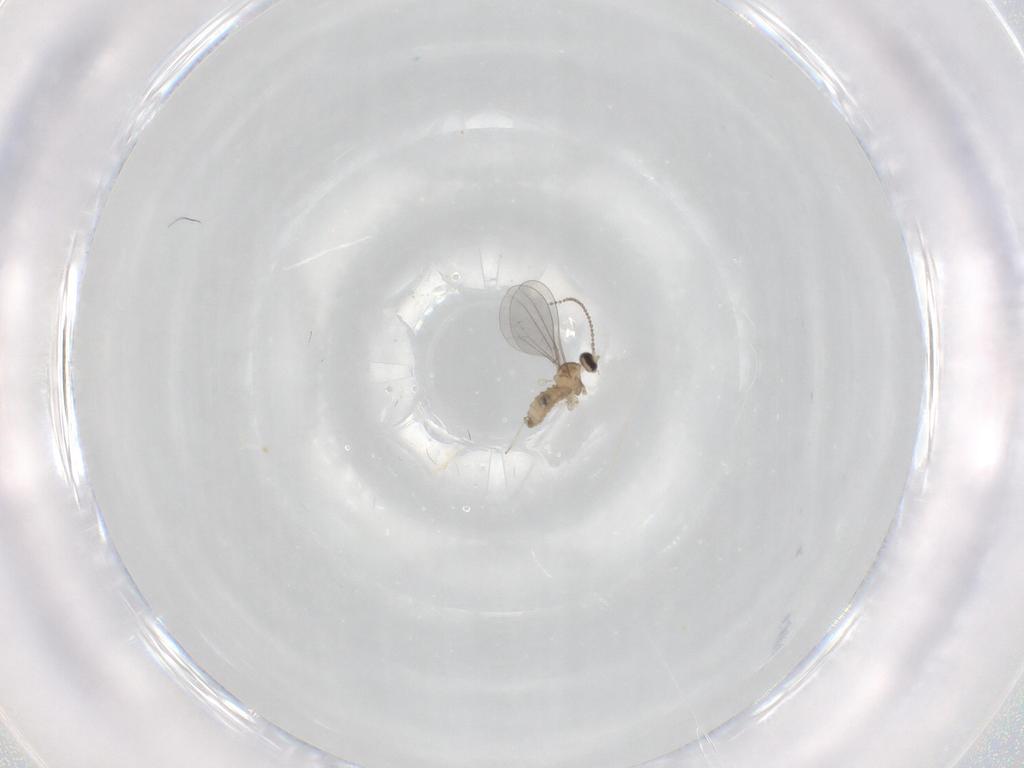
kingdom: Animalia
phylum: Arthropoda
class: Insecta
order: Diptera
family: Cecidomyiidae
